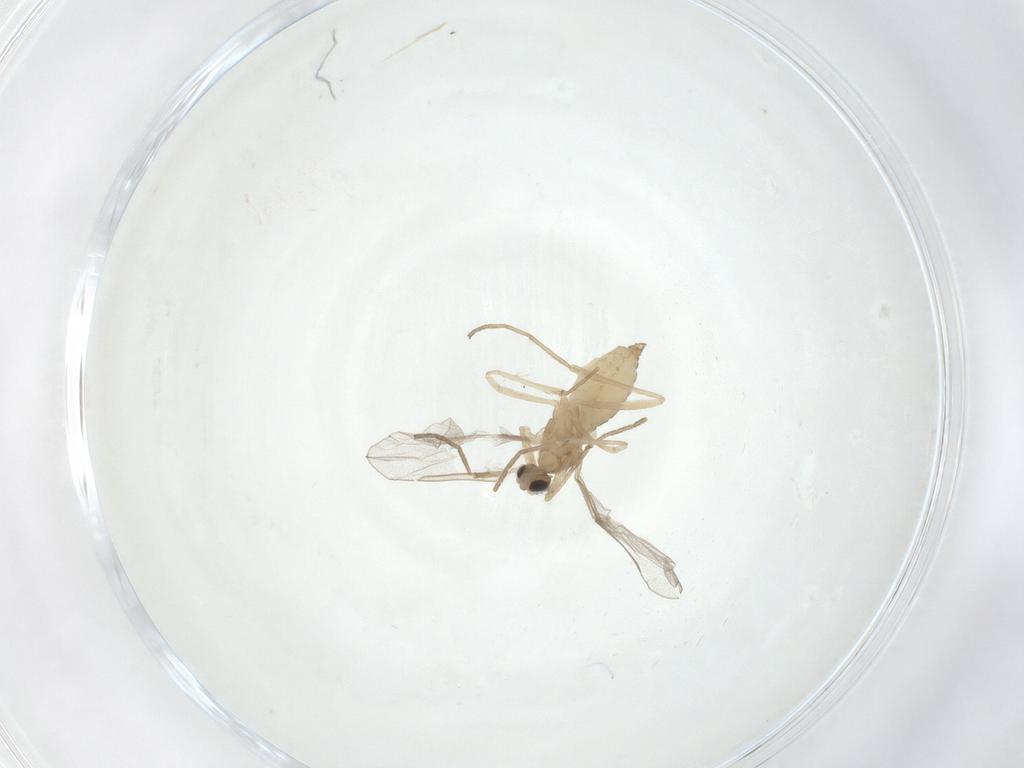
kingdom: Animalia
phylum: Arthropoda
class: Insecta
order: Diptera
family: Cecidomyiidae
